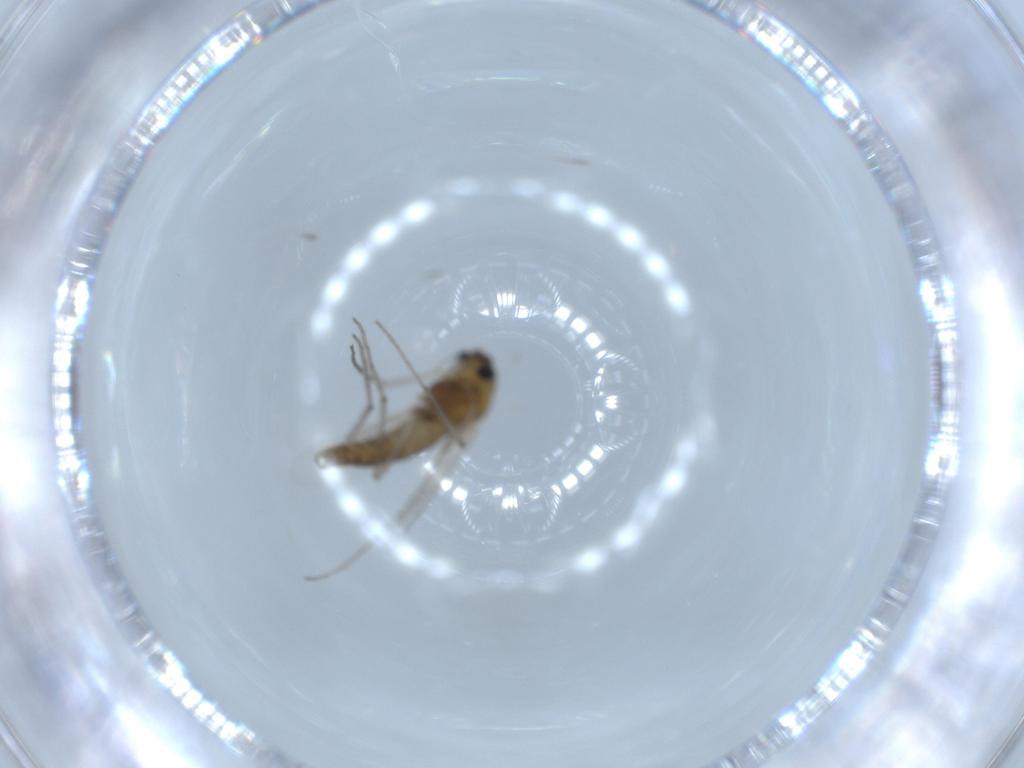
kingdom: Animalia
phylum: Arthropoda
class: Insecta
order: Diptera
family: Chironomidae
